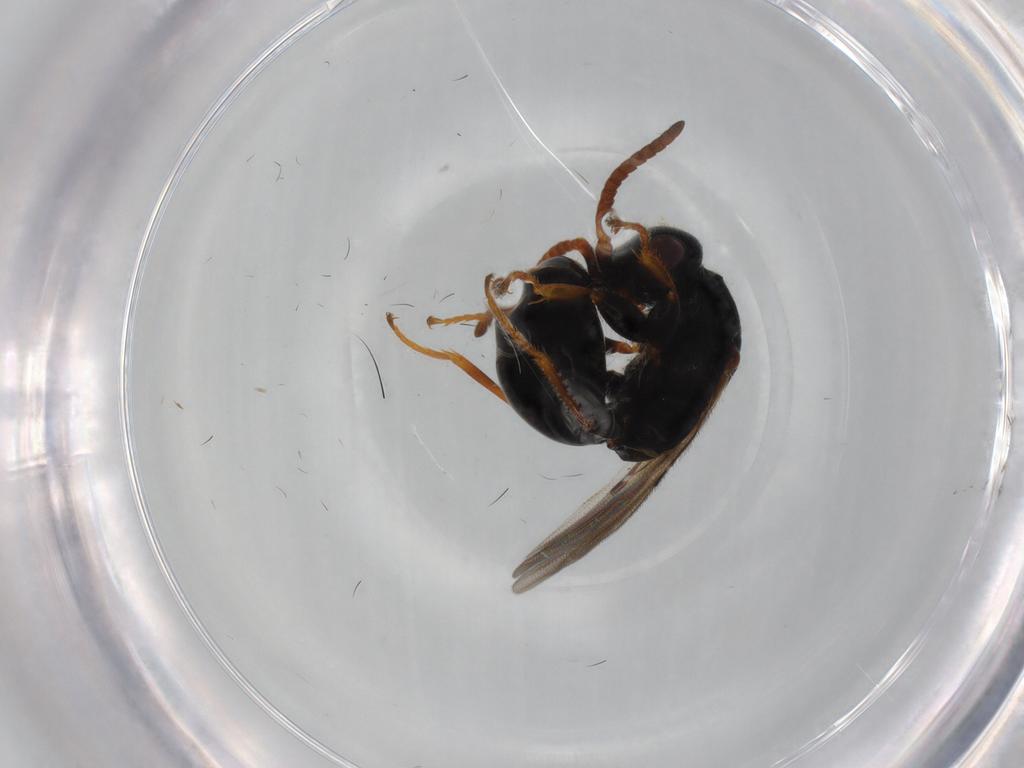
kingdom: Animalia
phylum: Arthropoda
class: Insecta
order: Hymenoptera
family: Bethylidae
